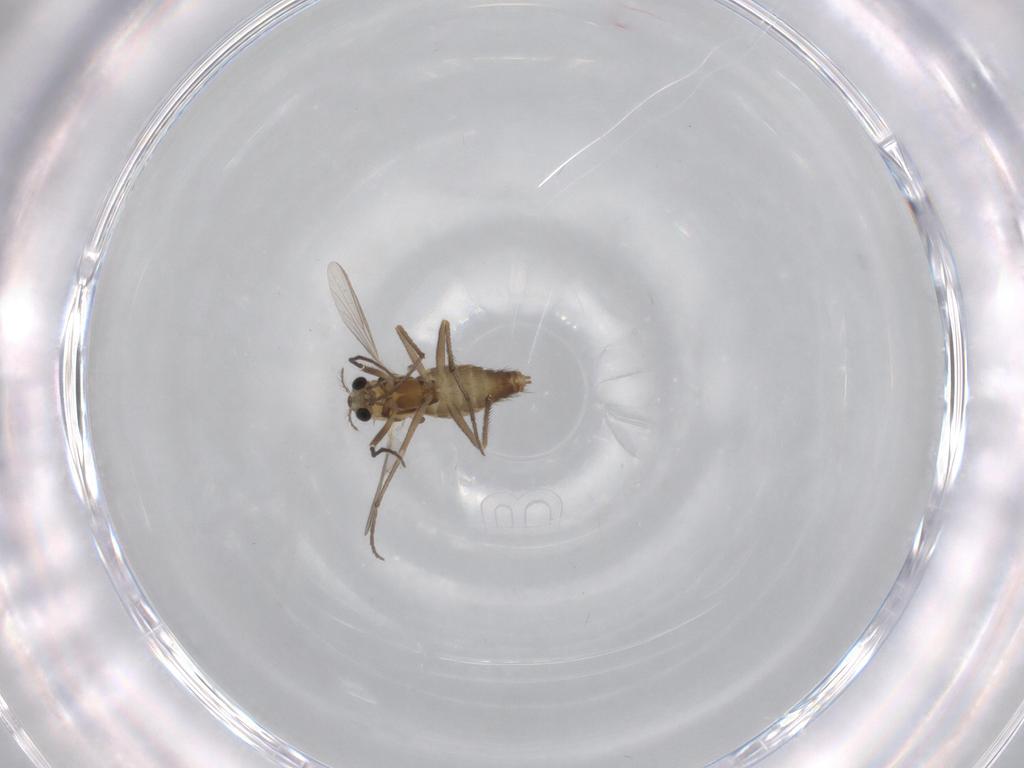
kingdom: Animalia
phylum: Arthropoda
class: Insecta
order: Diptera
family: Chironomidae
